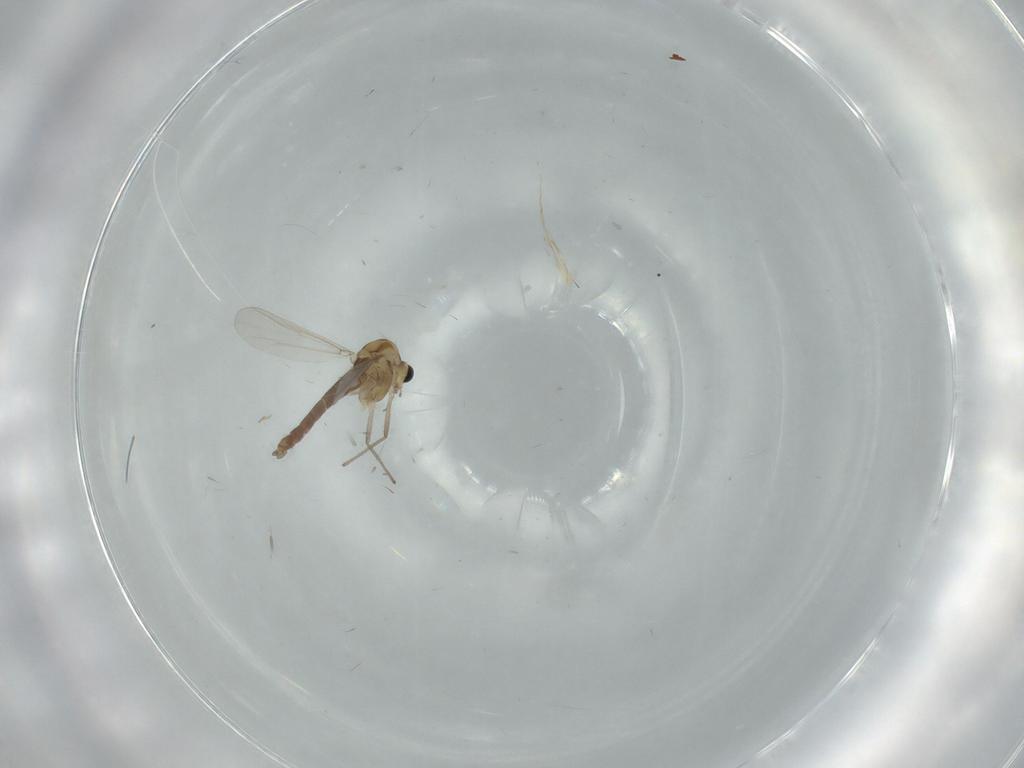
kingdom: Animalia
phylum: Arthropoda
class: Insecta
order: Diptera
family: Chironomidae
